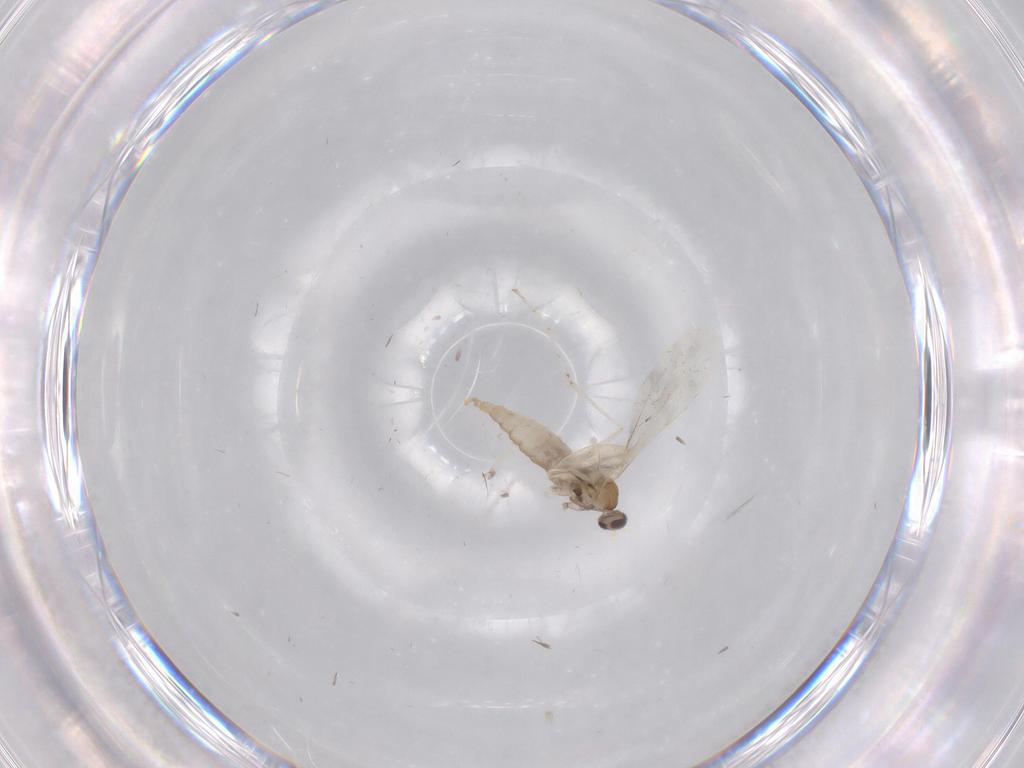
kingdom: Animalia
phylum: Arthropoda
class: Insecta
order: Diptera
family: Cecidomyiidae
